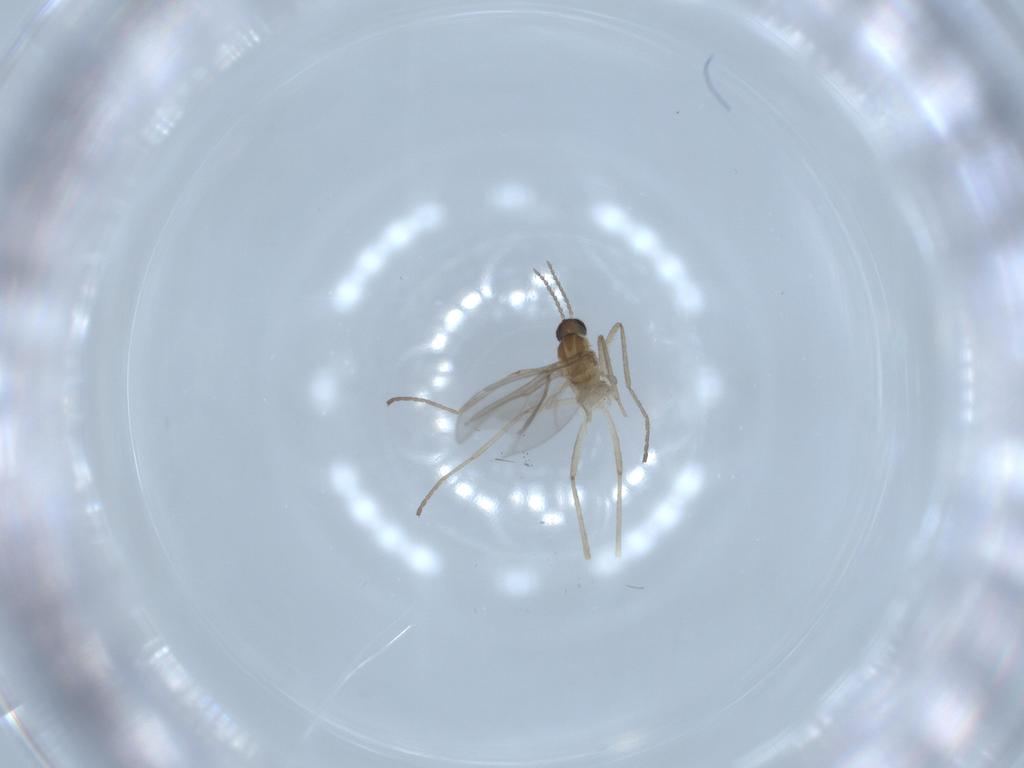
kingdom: Animalia
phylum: Arthropoda
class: Insecta
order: Diptera
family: Cecidomyiidae
